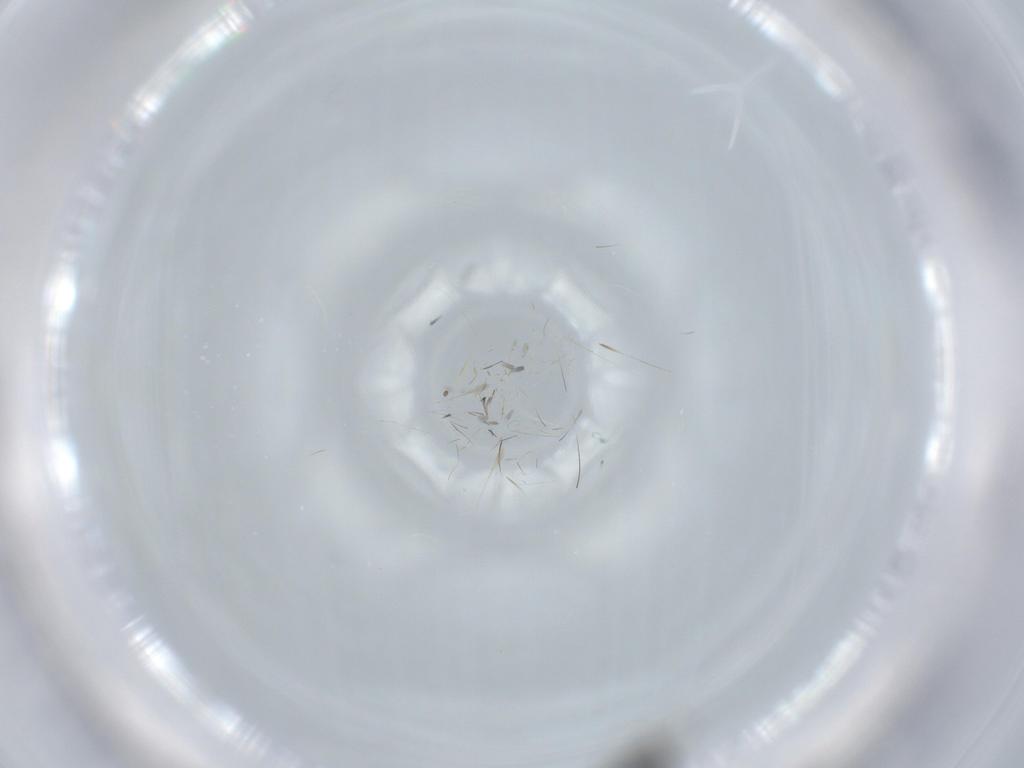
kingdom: Animalia
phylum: Arthropoda
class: Insecta
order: Coleoptera
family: Staphylinidae
